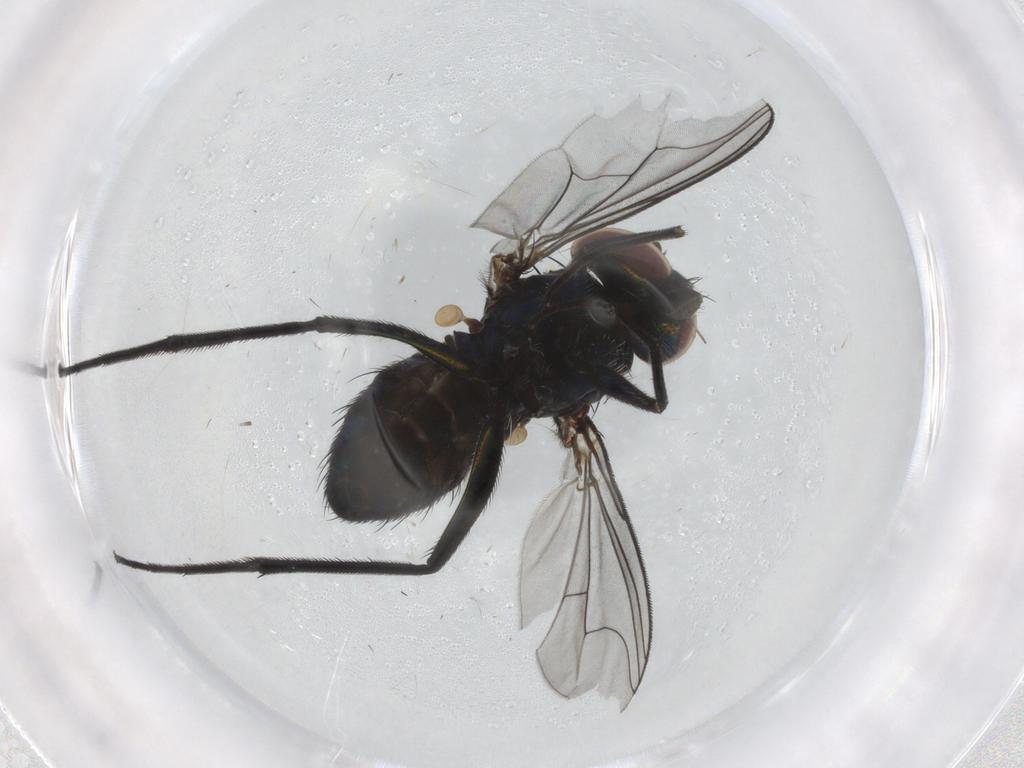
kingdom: Animalia
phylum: Arthropoda
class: Insecta
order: Diptera
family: Dolichopodidae
